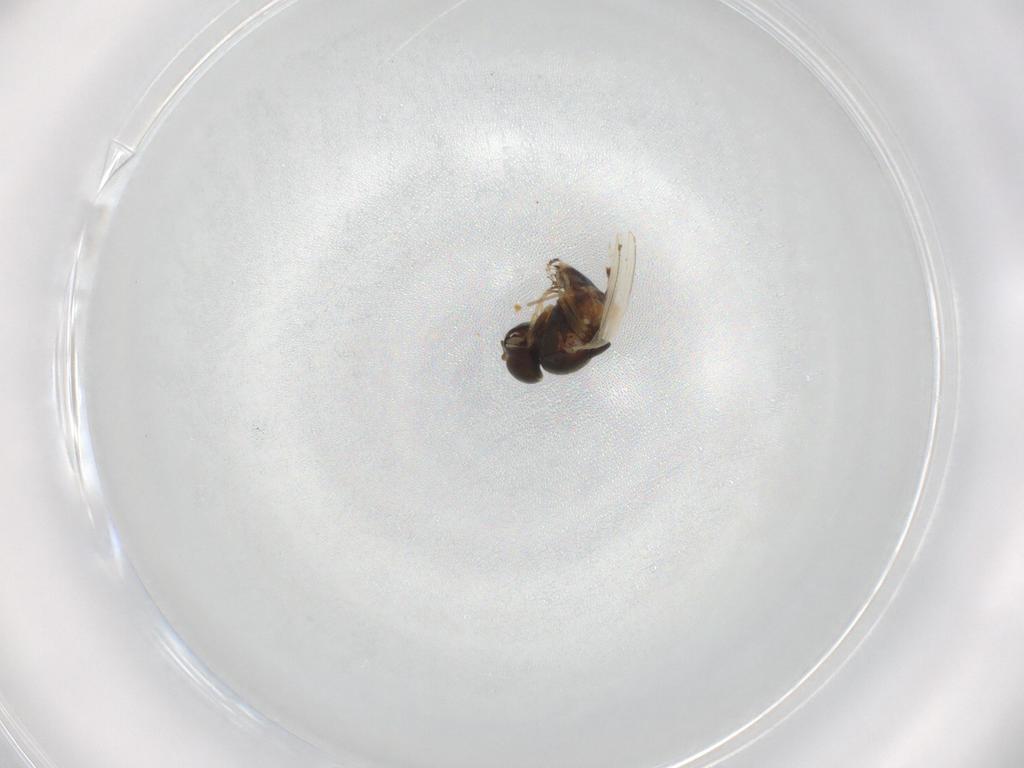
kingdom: Animalia
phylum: Arthropoda
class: Insecta
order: Diptera
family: Ephydridae
